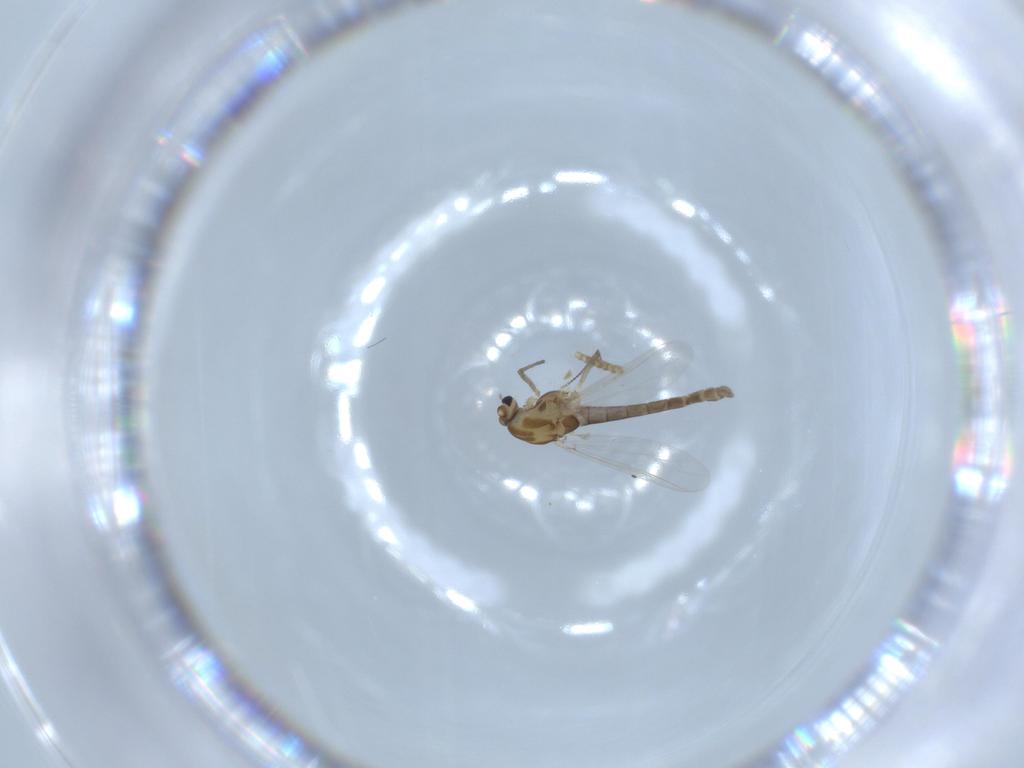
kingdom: Animalia
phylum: Arthropoda
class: Insecta
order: Diptera
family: Chironomidae
